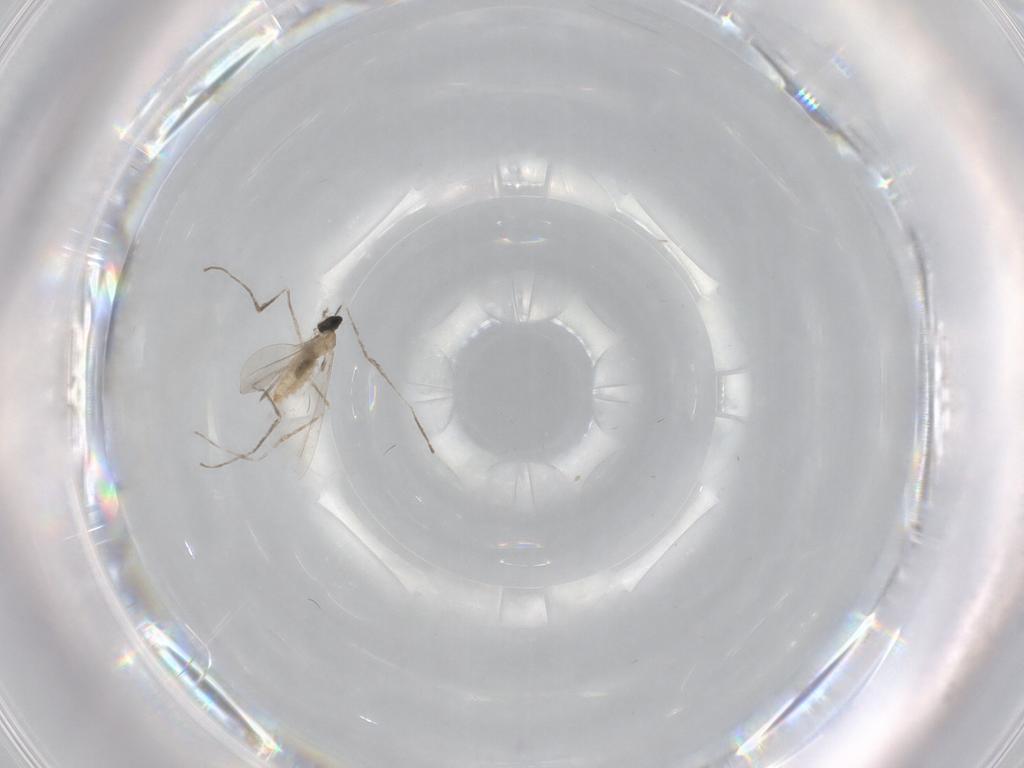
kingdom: Animalia
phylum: Arthropoda
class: Insecta
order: Diptera
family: Cecidomyiidae
